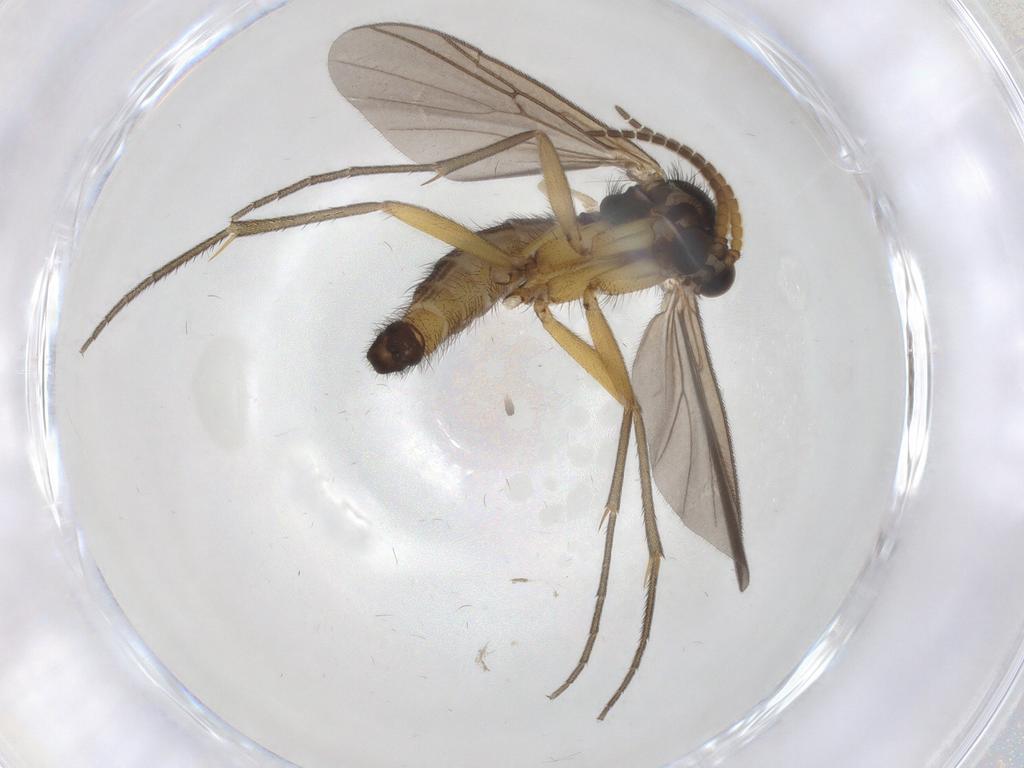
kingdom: Animalia
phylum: Arthropoda
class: Insecta
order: Diptera
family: Mycetophilidae
